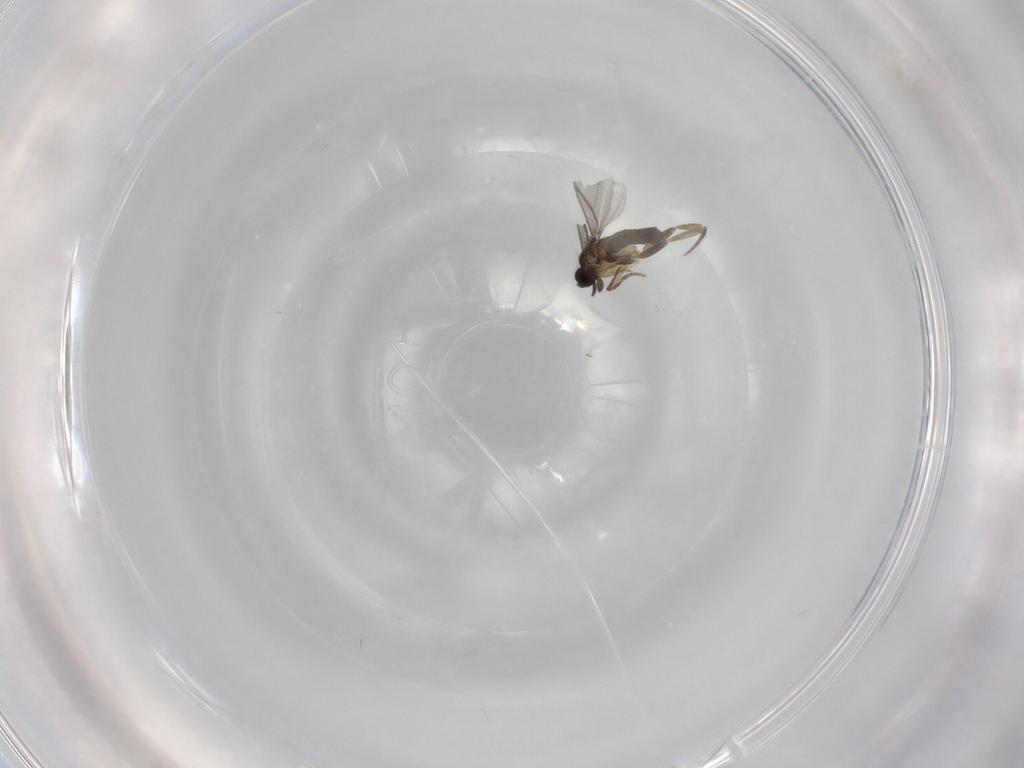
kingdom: Animalia
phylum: Arthropoda
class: Insecta
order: Diptera
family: Cecidomyiidae
